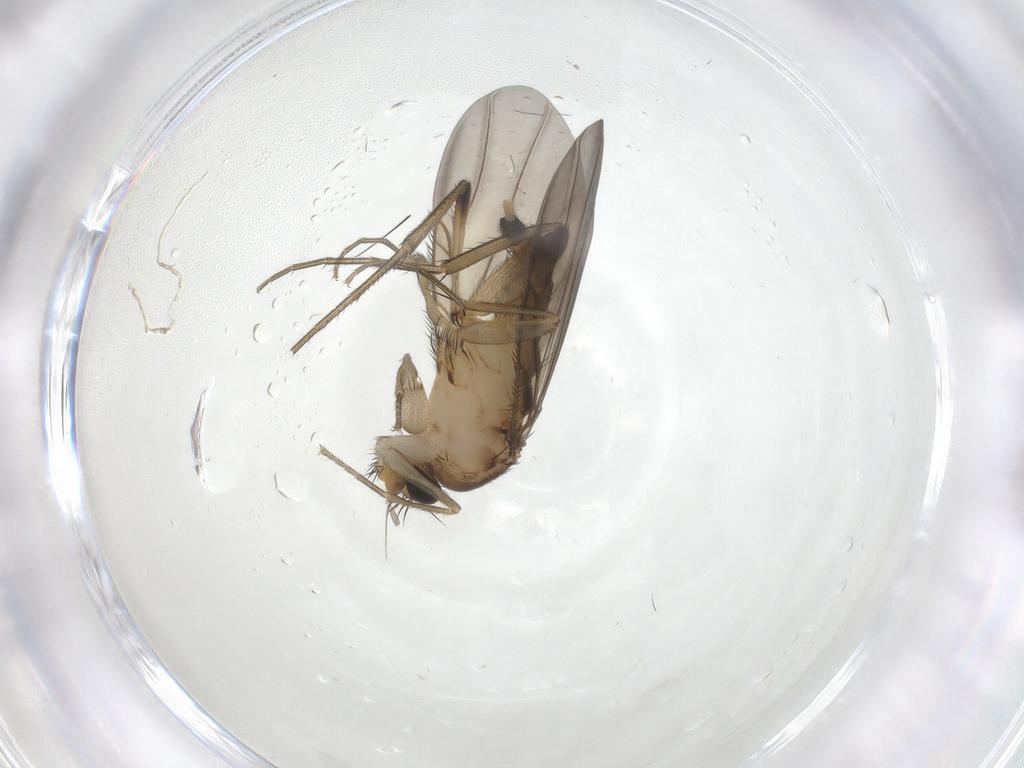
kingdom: Animalia
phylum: Arthropoda
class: Insecta
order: Diptera
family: Phoridae
